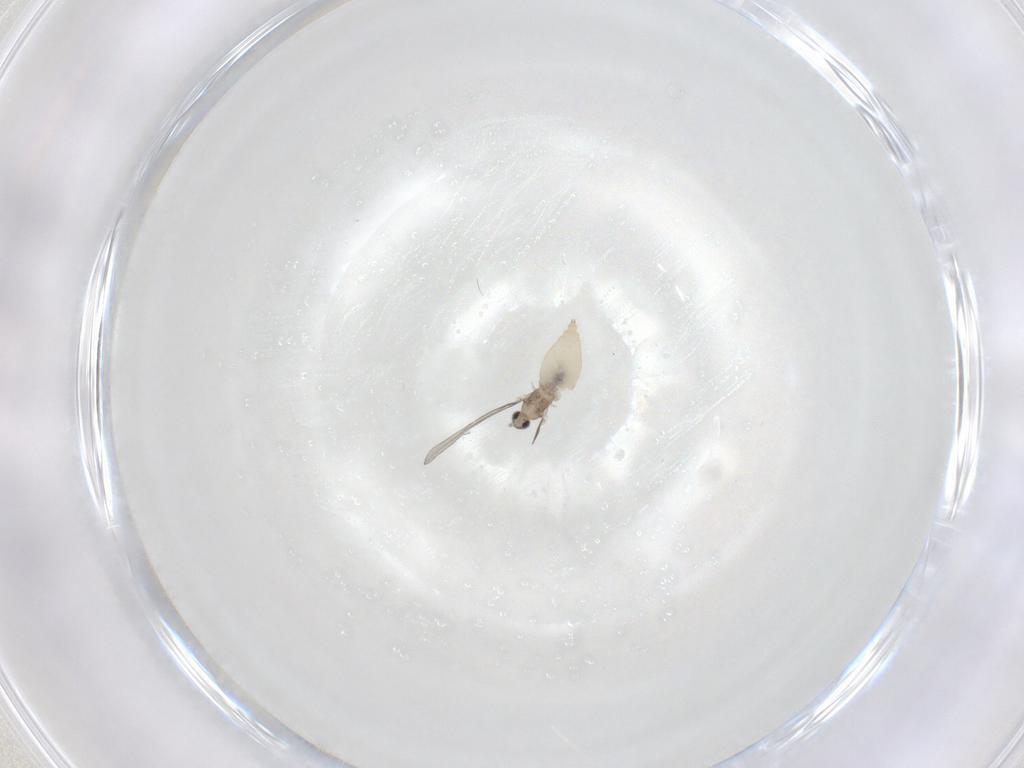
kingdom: Animalia
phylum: Arthropoda
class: Insecta
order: Diptera
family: Cecidomyiidae
